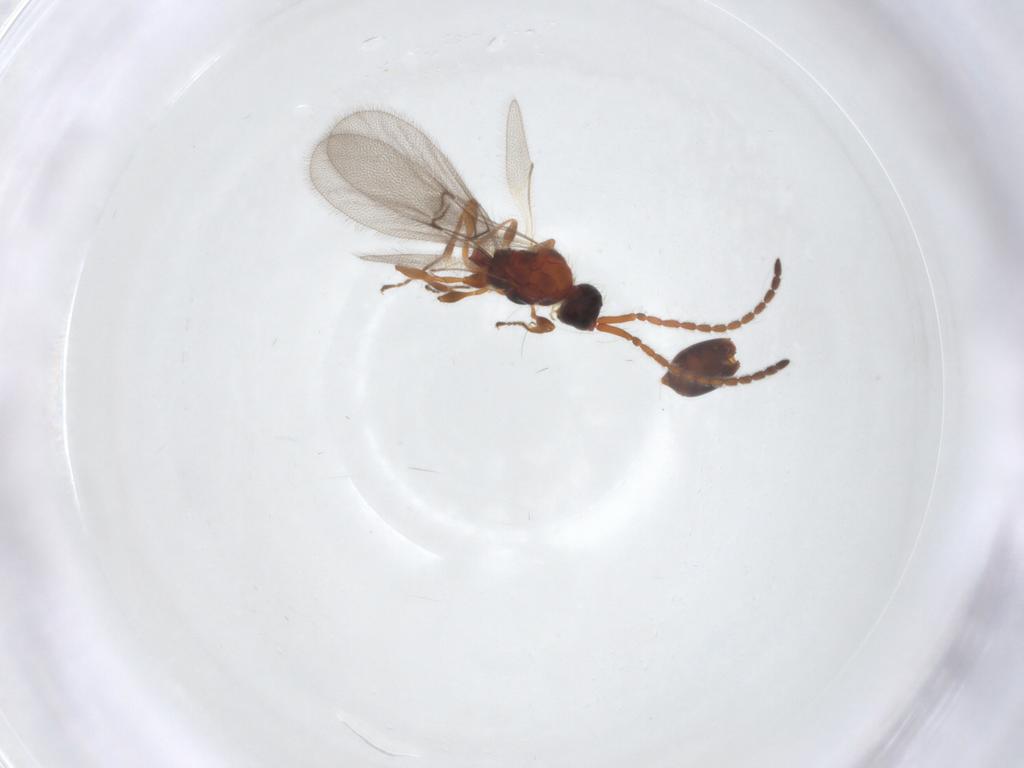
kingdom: Animalia
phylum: Arthropoda
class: Insecta
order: Hymenoptera
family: Diapriidae
